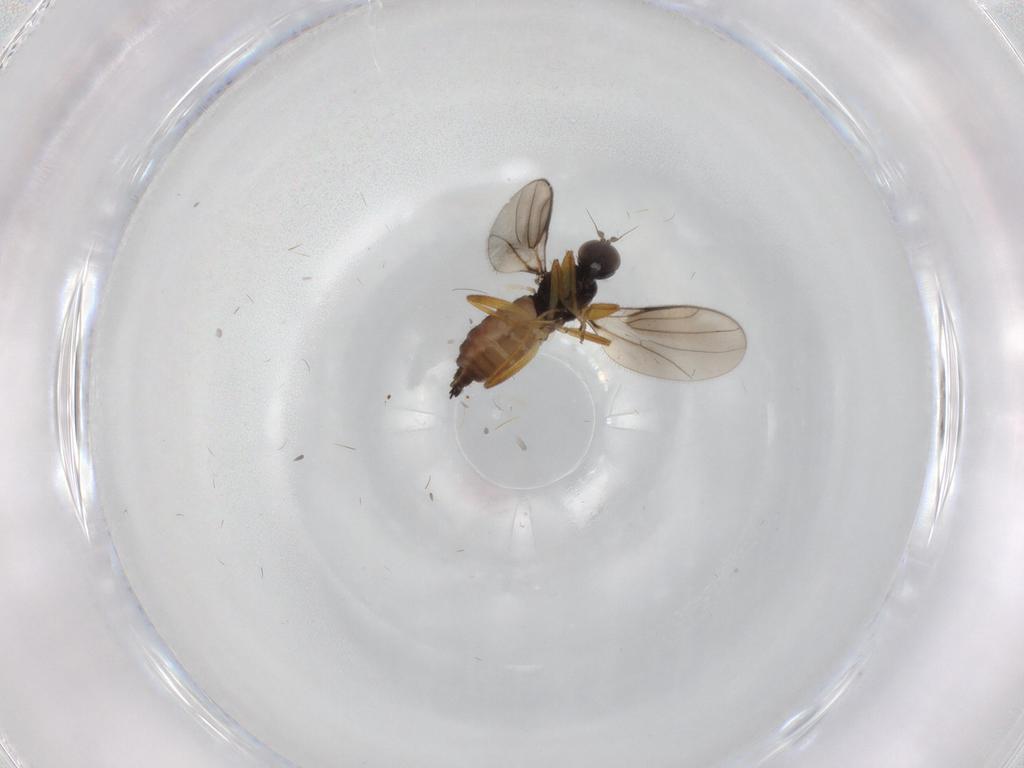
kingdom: Animalia
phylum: Arthropoda
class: Insecta
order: Diptera
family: Hybotidae
